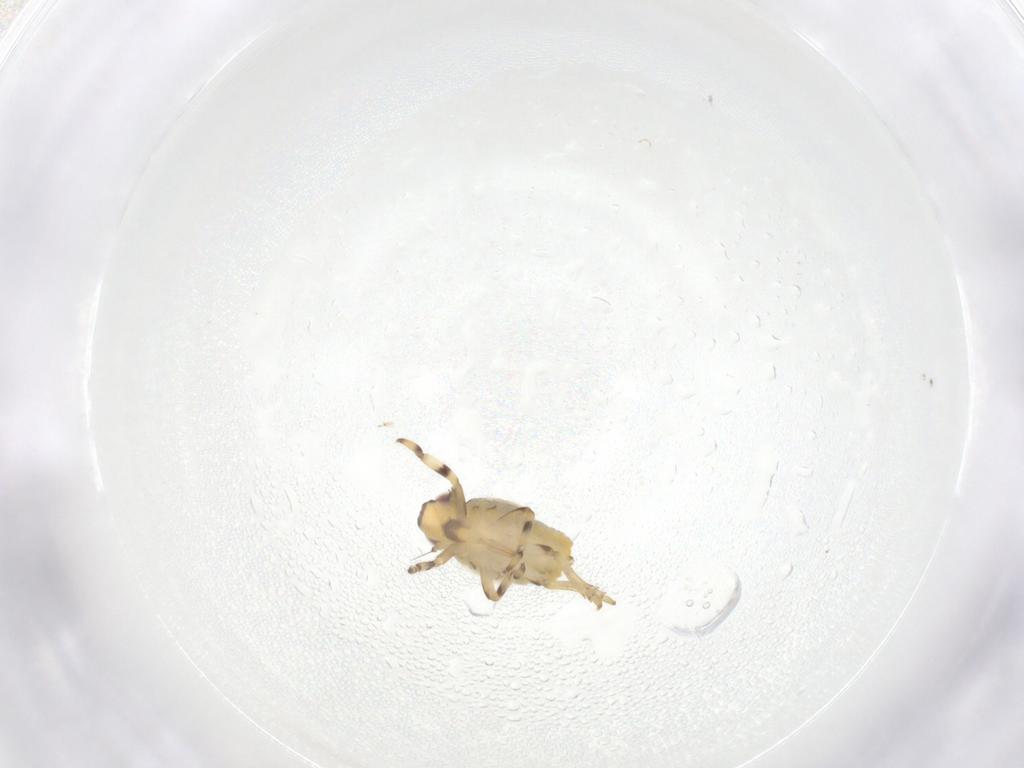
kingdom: Animalia
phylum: Arthropoda
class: Insecta
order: Hemiptera
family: Issidae
